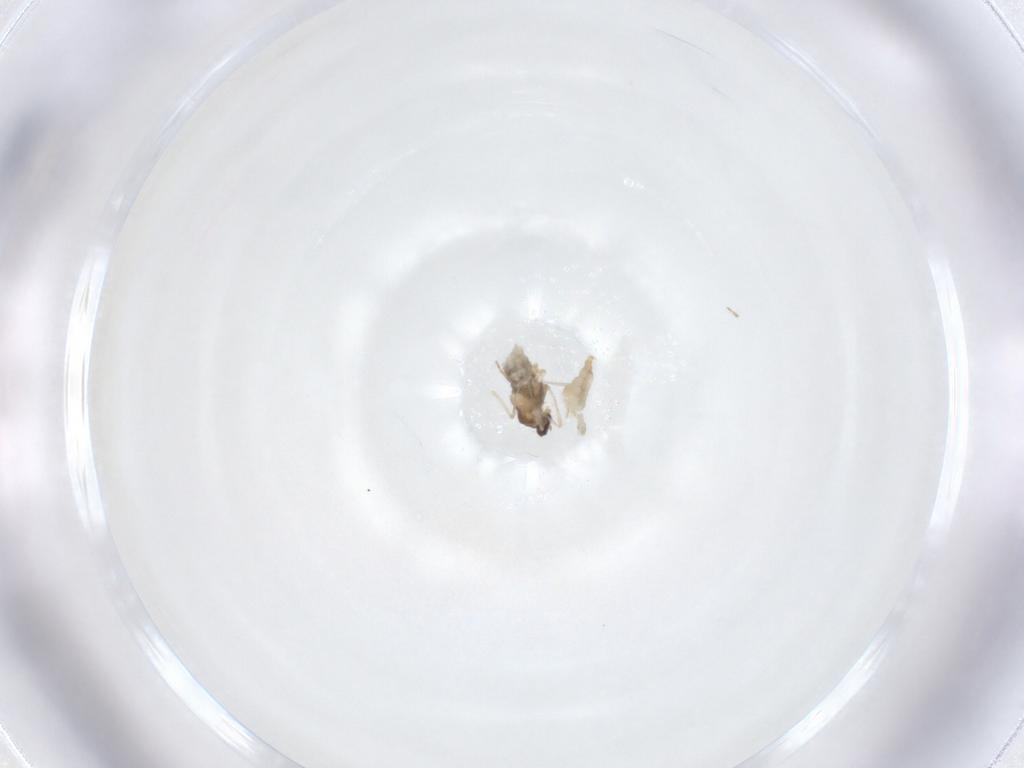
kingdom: Animalia
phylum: Arthropoda
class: Insecta
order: Diptera
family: Cecidomyiidae
